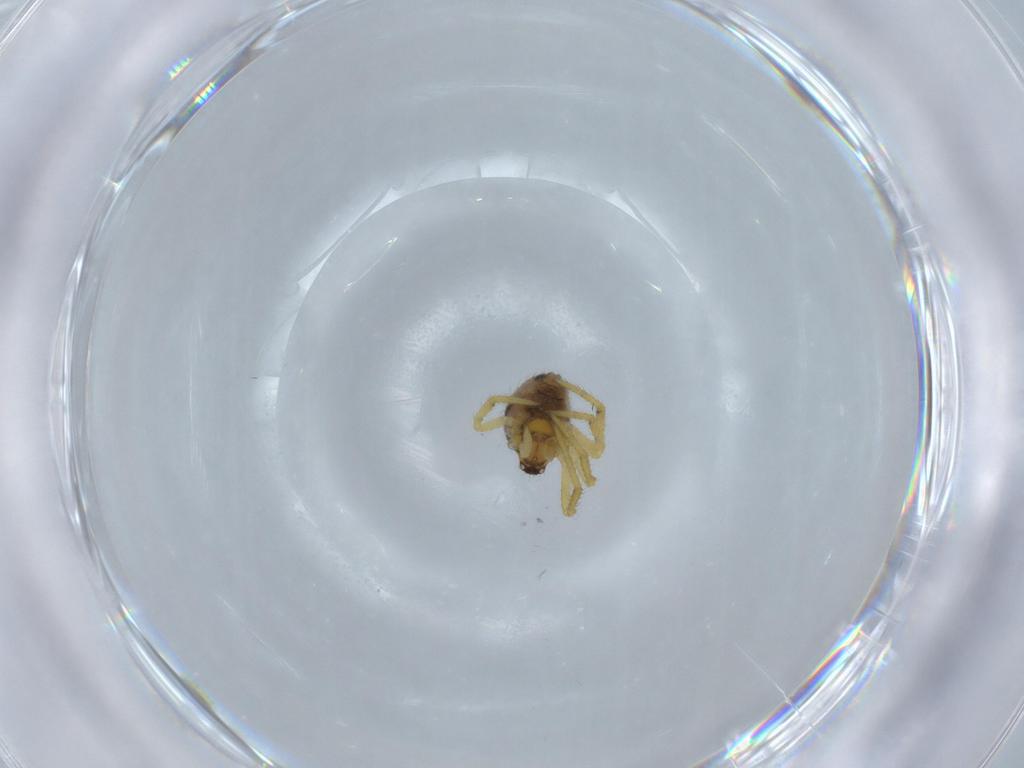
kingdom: Animalia
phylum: Arthropoda
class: Arachnida
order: Araneae
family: Theridiidae
